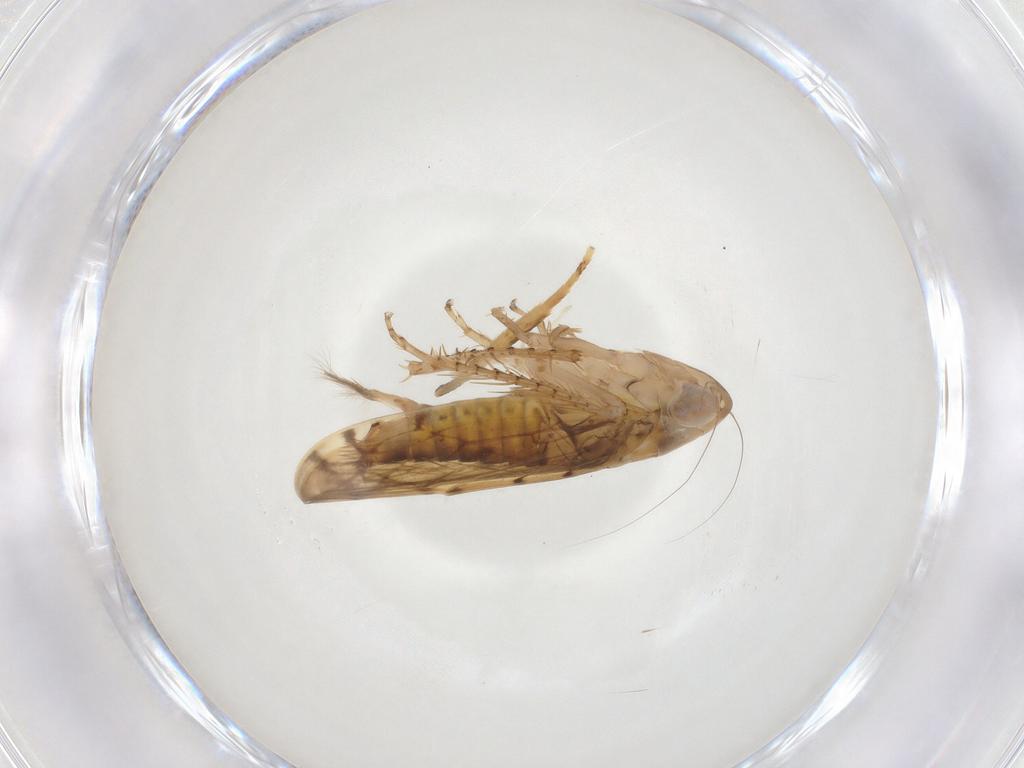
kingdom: Animalia
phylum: Arthropoda
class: Insecta
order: Hemiptera
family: Cicadellidae
